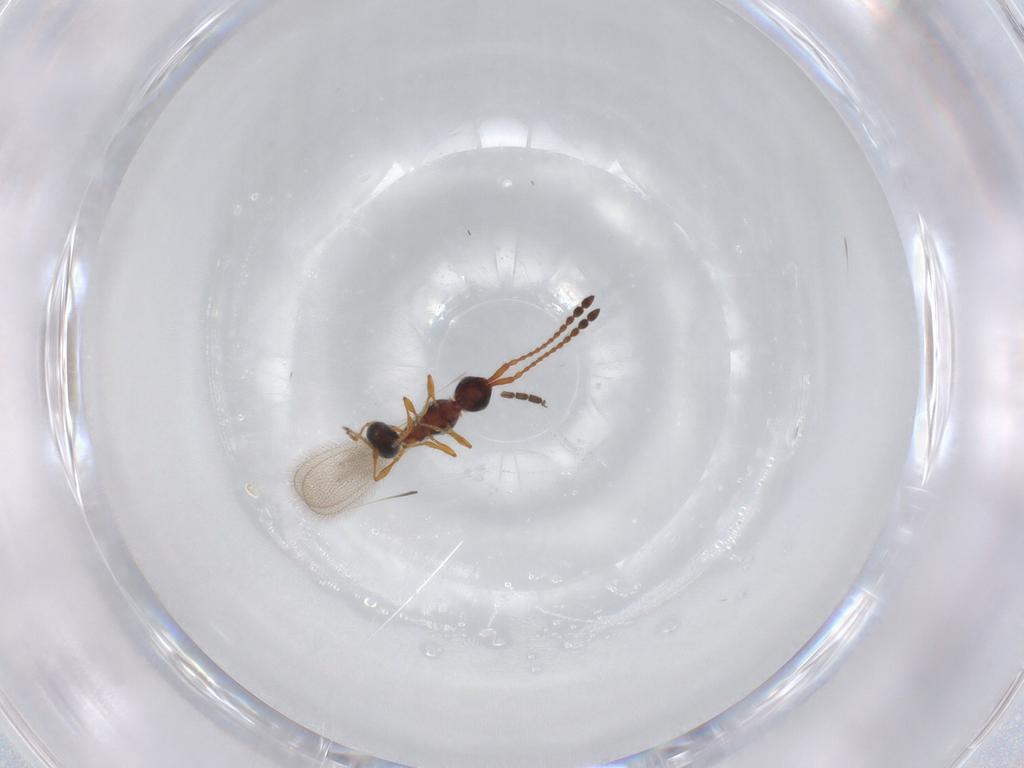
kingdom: Animalia
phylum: Arthropoda
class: Insecta
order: Hymenoptera
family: Diapriidae
